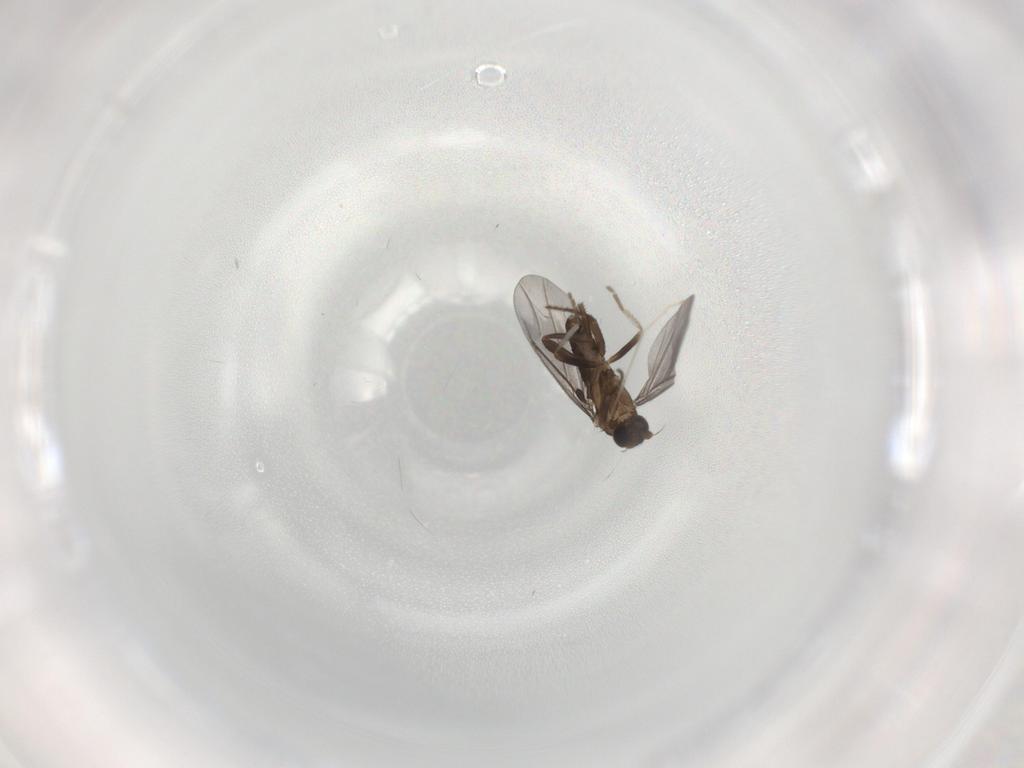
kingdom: Animalia
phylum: Arthropoda
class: Insecta
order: Diptera
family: Phoridae
